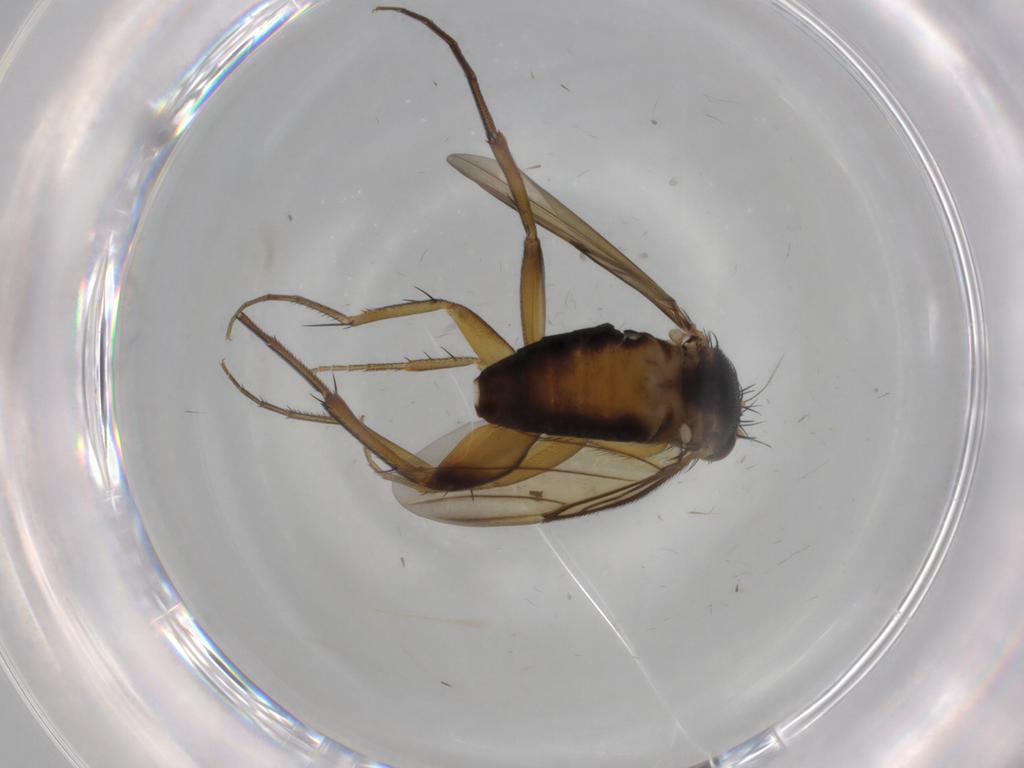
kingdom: Animalia
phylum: Arthropoda
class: Insecta
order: Diptera
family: Phoridae
